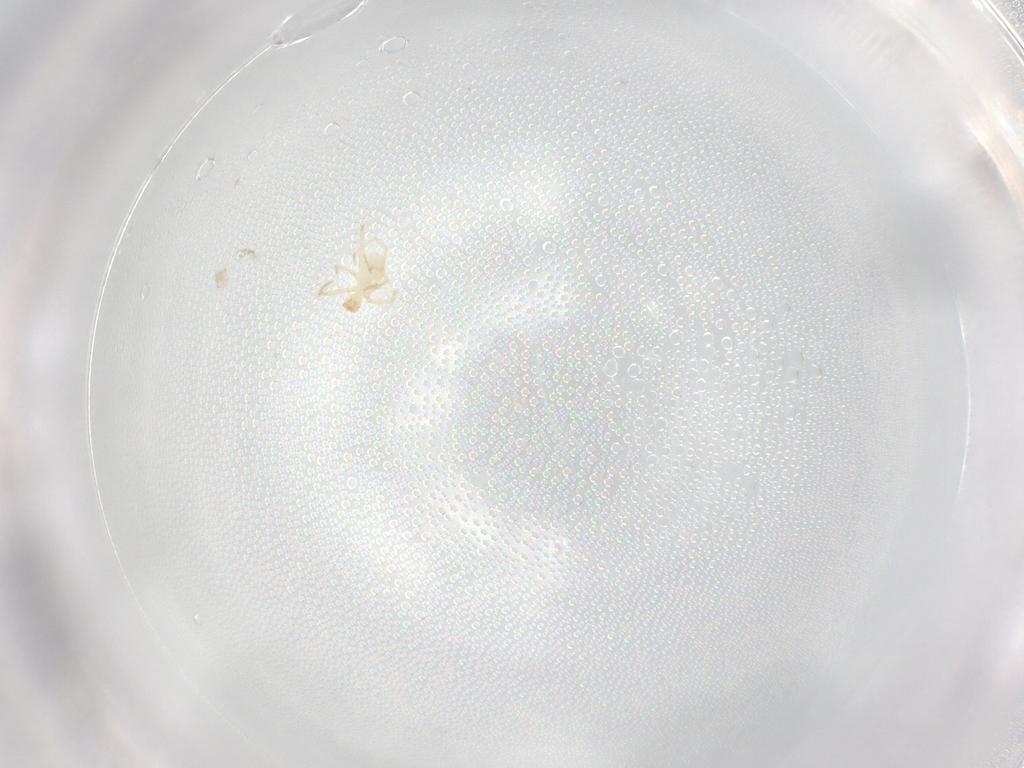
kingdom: Animalia
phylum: Arthropoda
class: Arachnida
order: Trombidiformes
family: Erythraeidae
